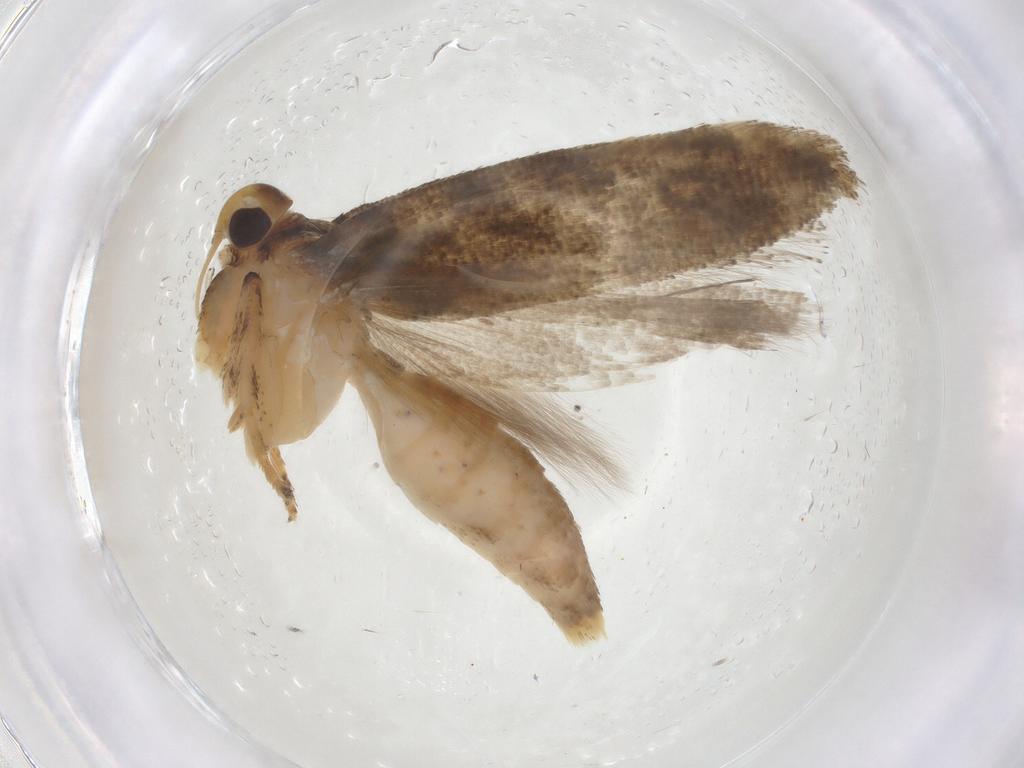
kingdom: Animalia
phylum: Arthropoda
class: Insecta
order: Lepidoptera
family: Gelechiidae
